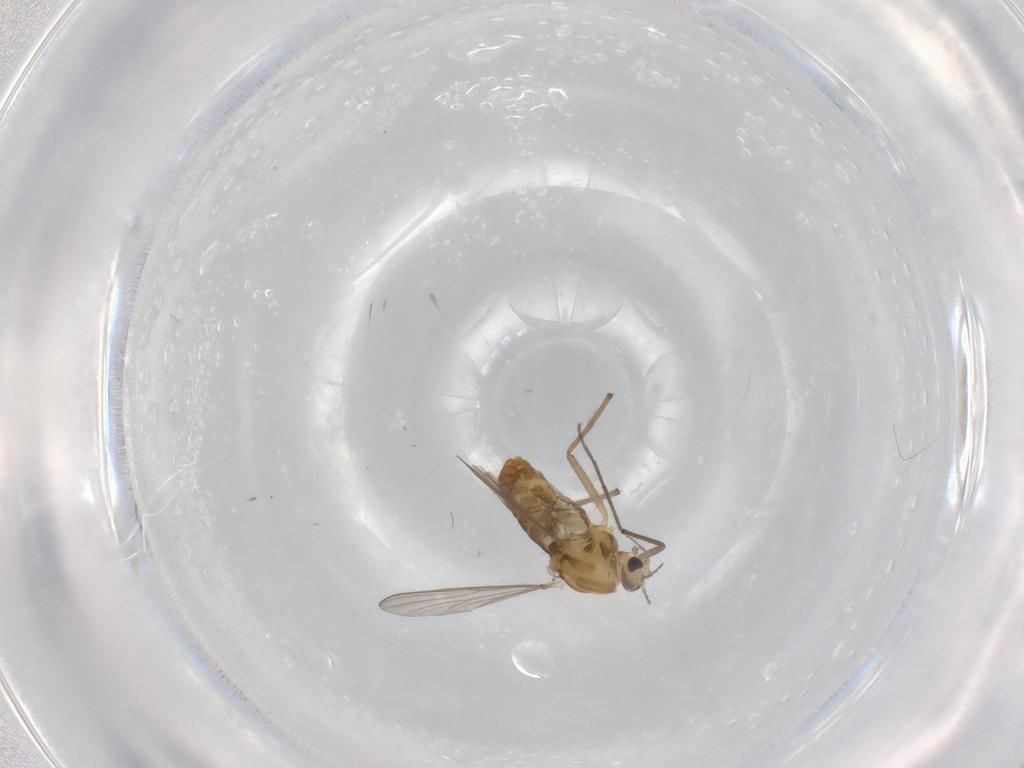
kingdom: Animalia
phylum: Arthropoda
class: Insecta
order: Diptera
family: Chironomidae
